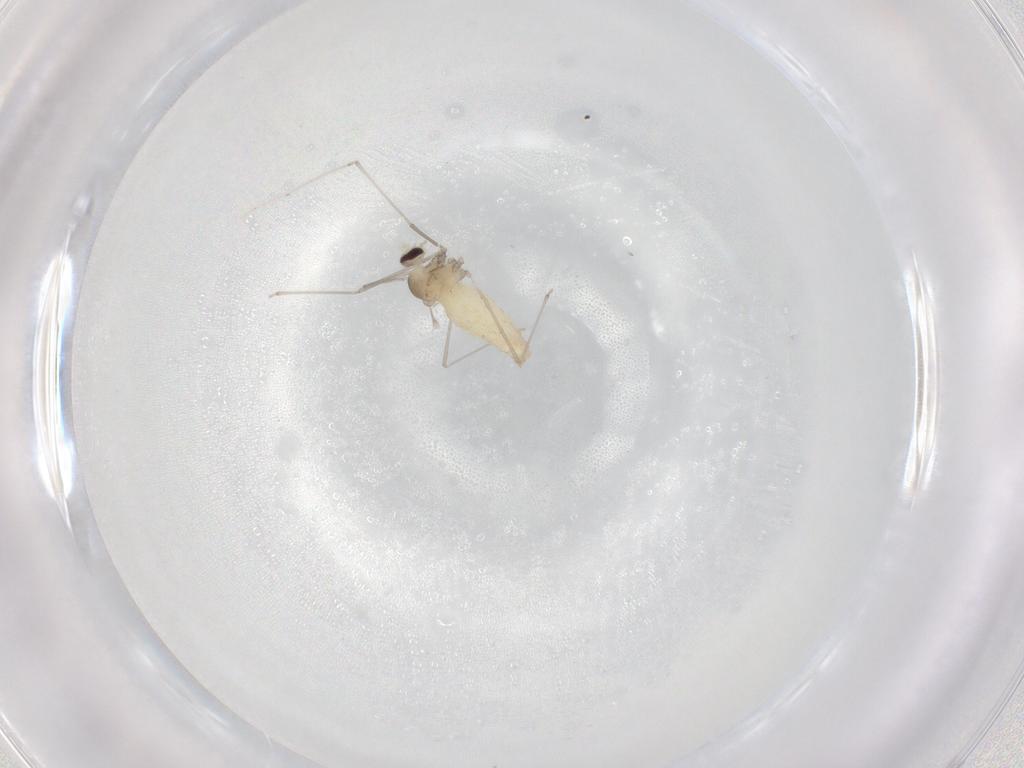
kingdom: Animalia
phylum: Arthropoda
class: Insecta
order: Diptera
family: Cecidomyiidae
